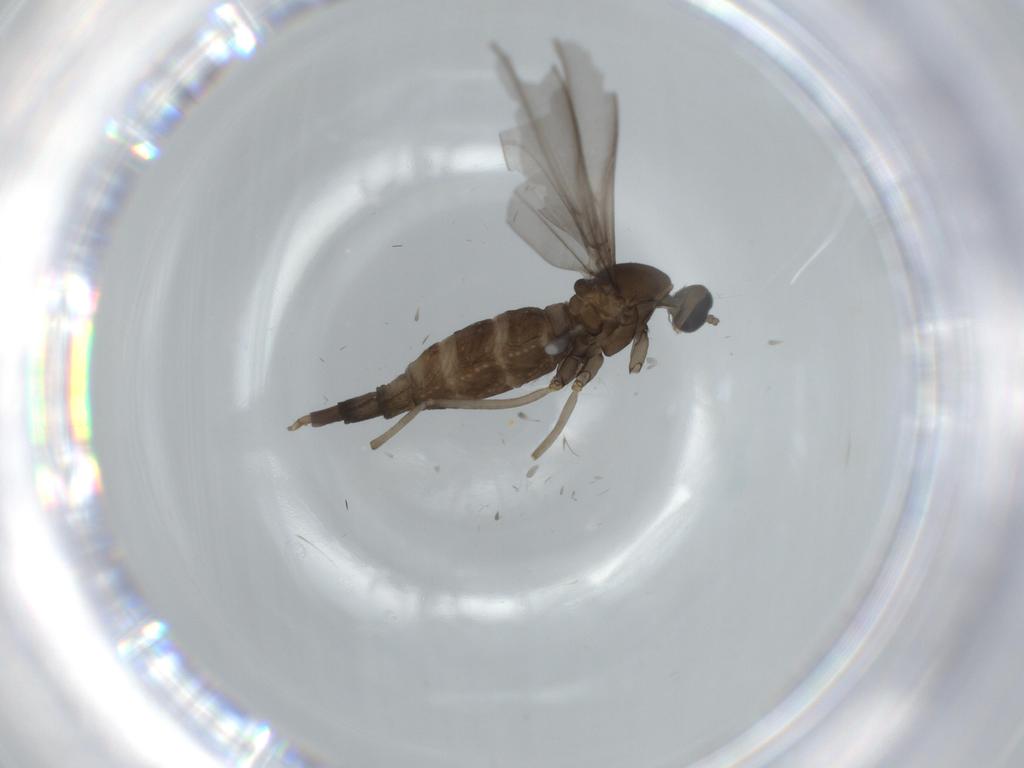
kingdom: Animalia
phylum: Arthropoda
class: Insecta
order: Diptera
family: Cecidomyiidae
